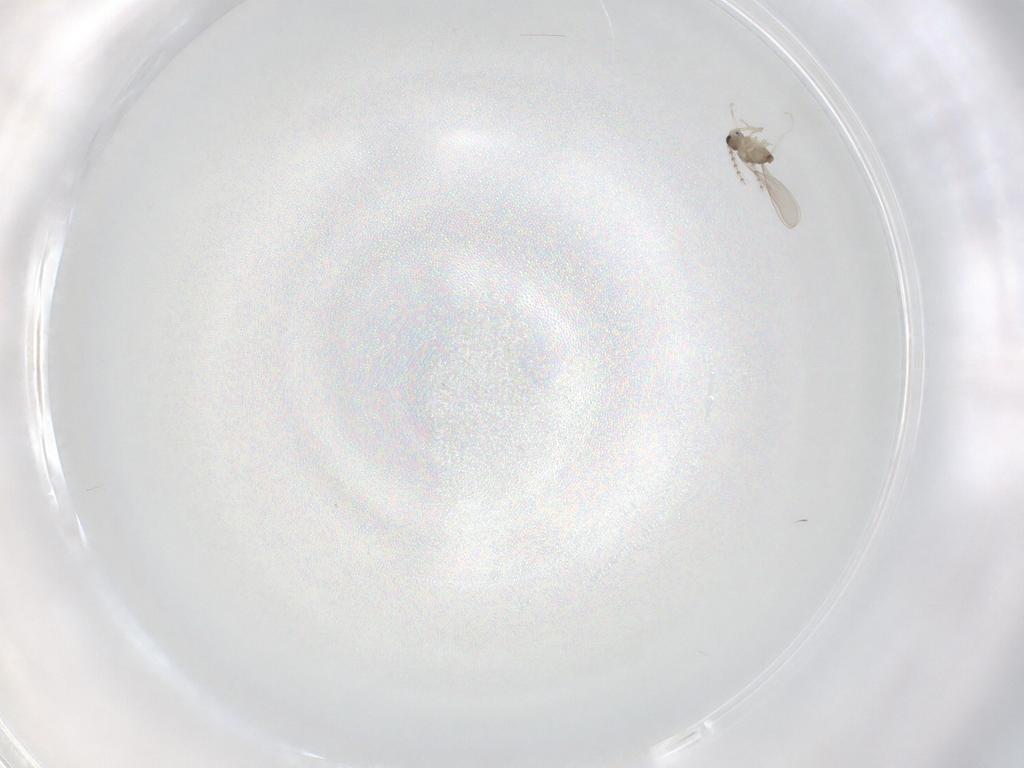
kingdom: Animalia
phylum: Arthropoda
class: Insecta
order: Diptera
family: Cecidomyiidae
